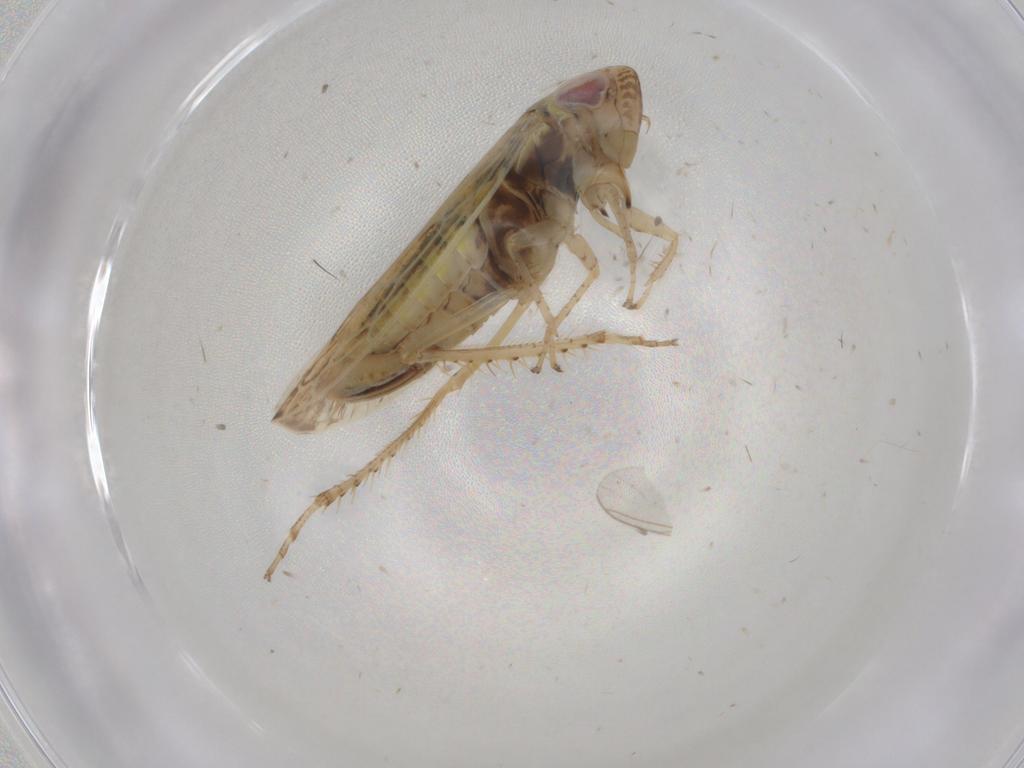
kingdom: Animalia
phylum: Arthropoda
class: Insecta
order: Hemiptera
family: Cicadellidae
